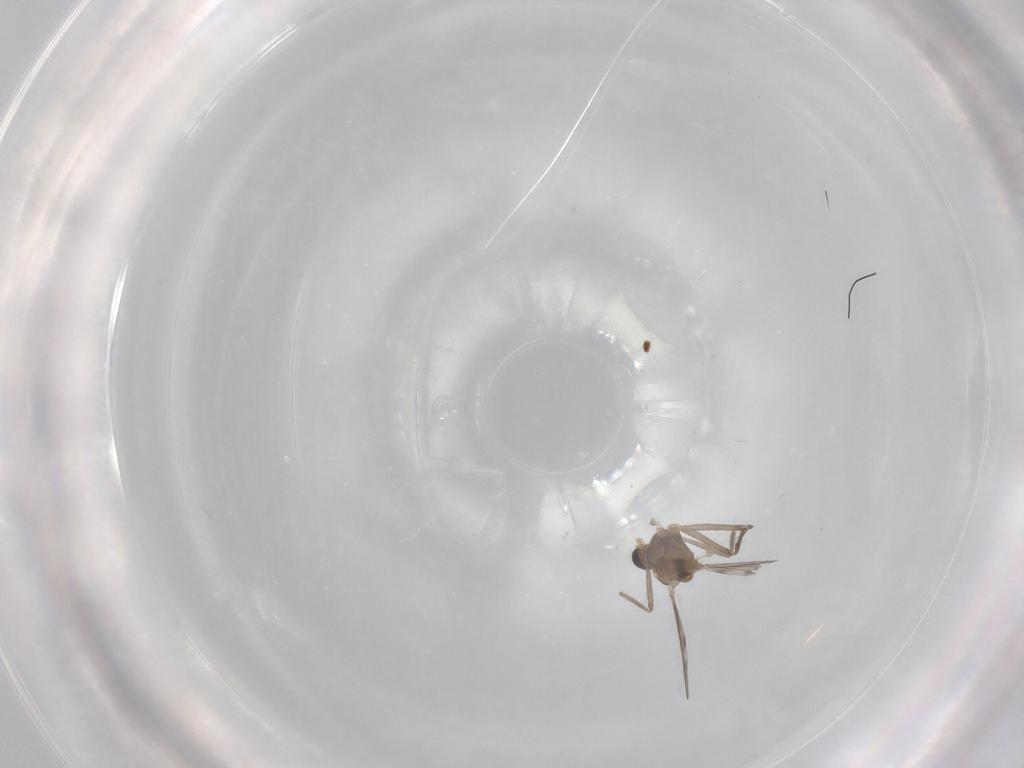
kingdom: Animalia
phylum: Arthropoda
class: Insecta
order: Diptera
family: Chironomidae
